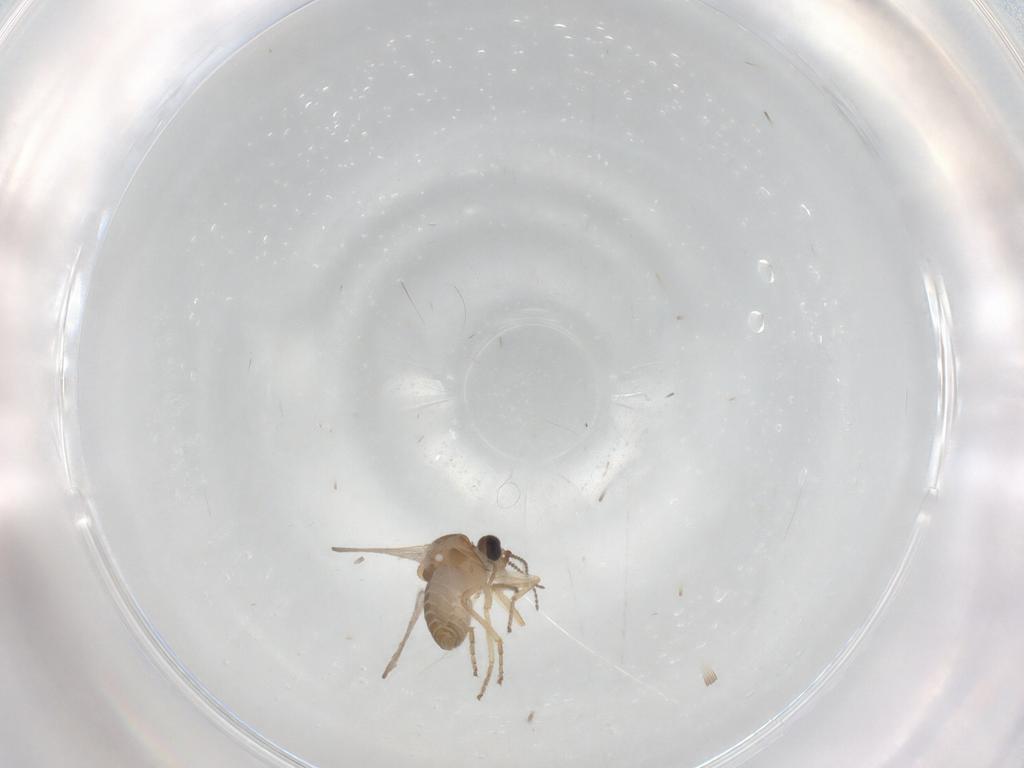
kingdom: Animalia
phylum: Arthropoda
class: Insecta
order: Diptera
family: Ceratopogonidae
